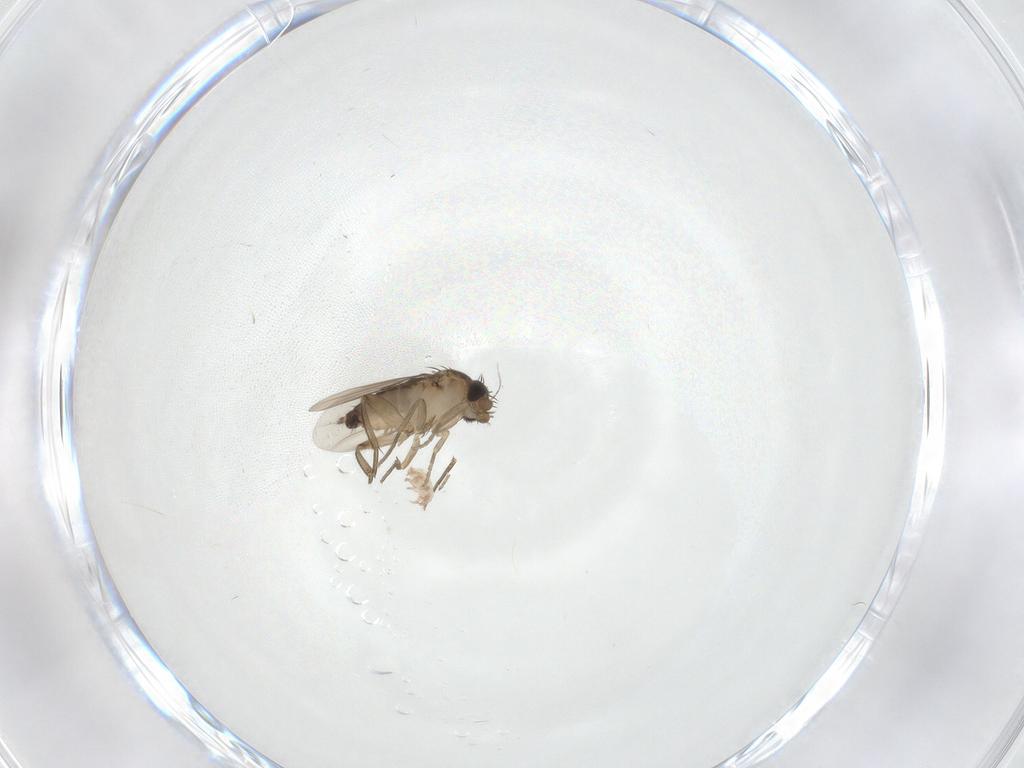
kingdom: Animalia
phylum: Arthropoda
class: Insecta
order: Diptera
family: Phoridae
